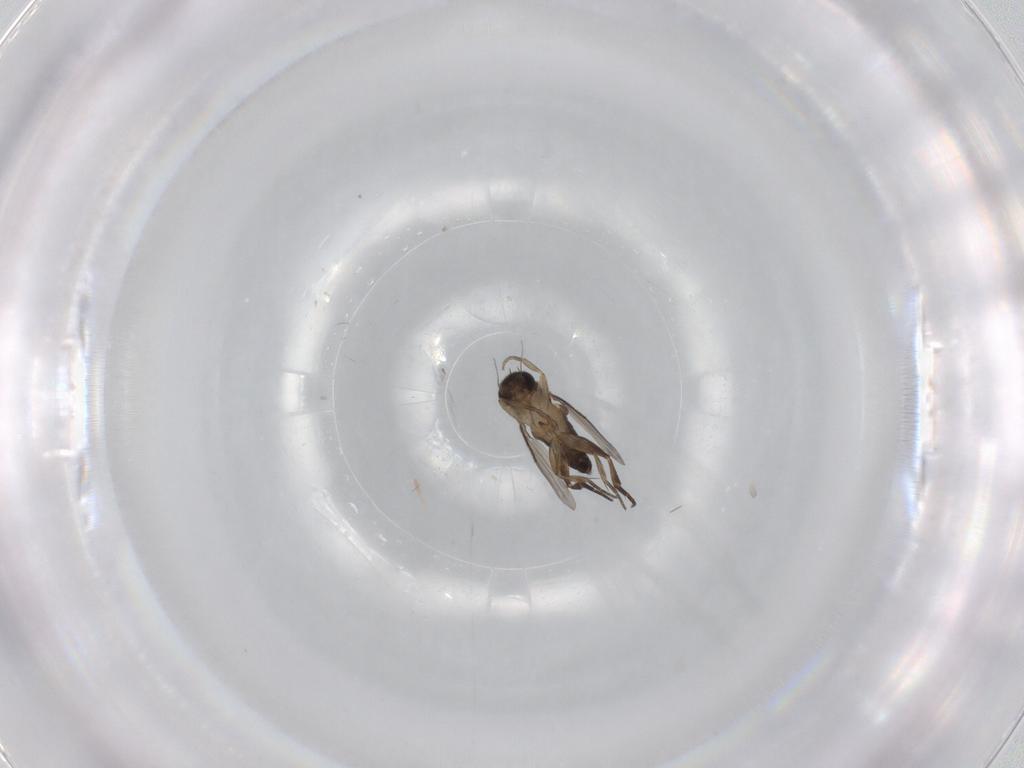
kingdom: Animalia
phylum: Arthropoda
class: Insecta
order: Diptera
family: Phoridae
